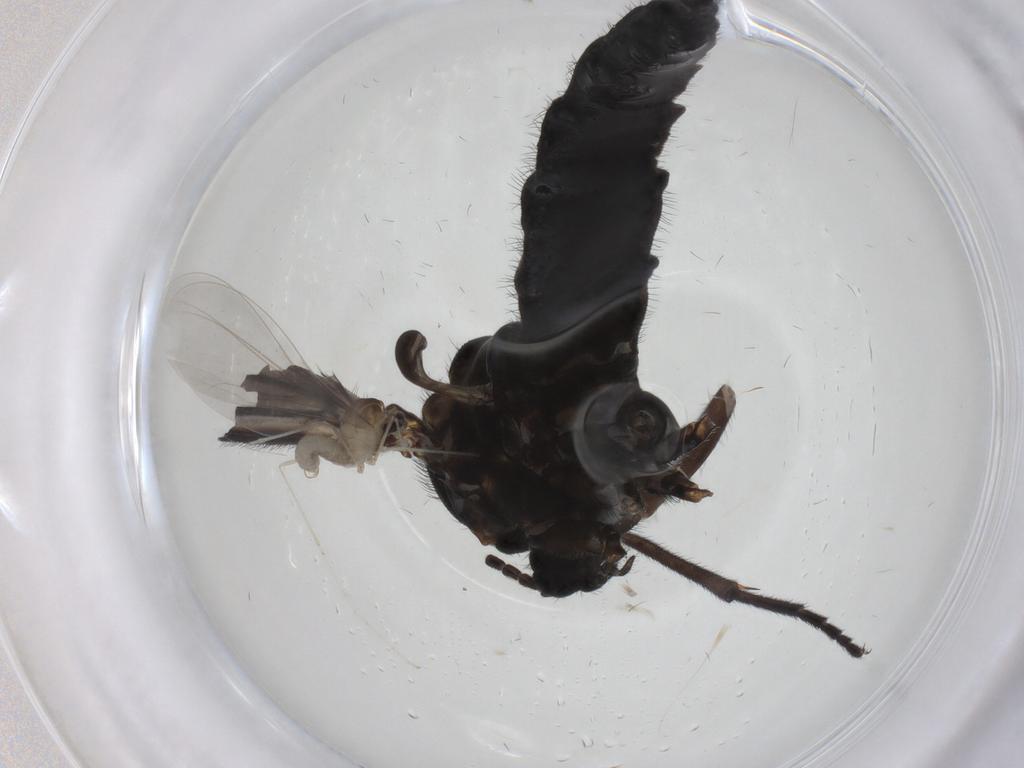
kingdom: Animalia
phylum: Arthropoda
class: Insecta
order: Diptera
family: Sciaridae
